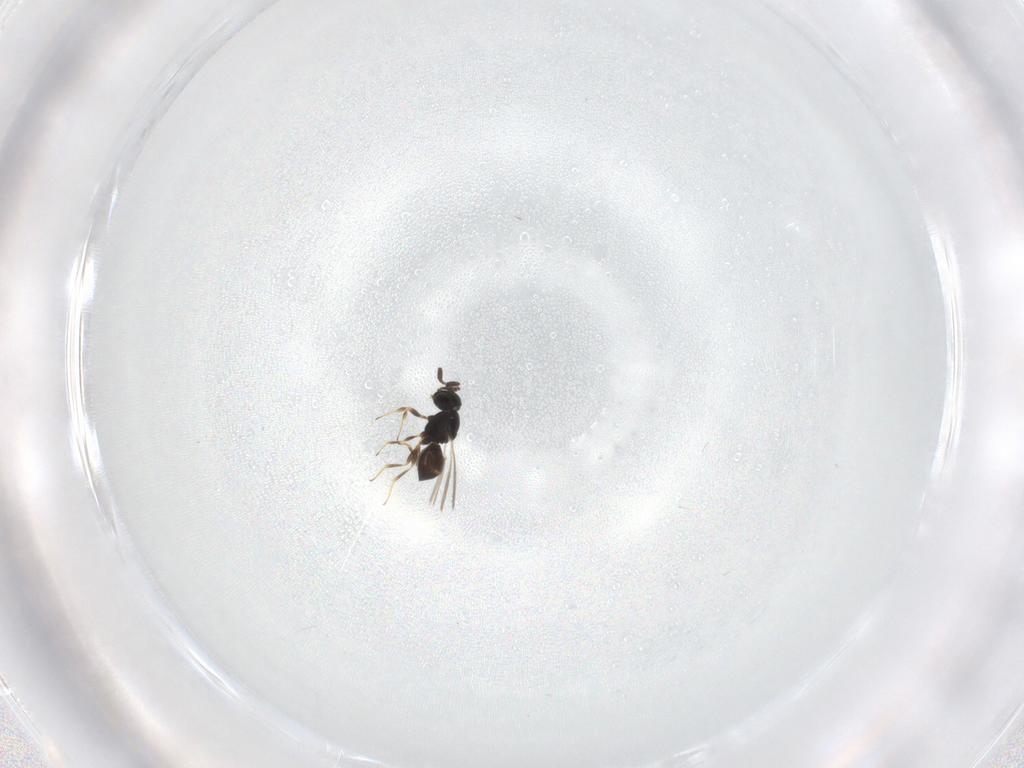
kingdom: Animalia
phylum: Arthropoda
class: Insecta
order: Hymenoptera
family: Scelionidae
